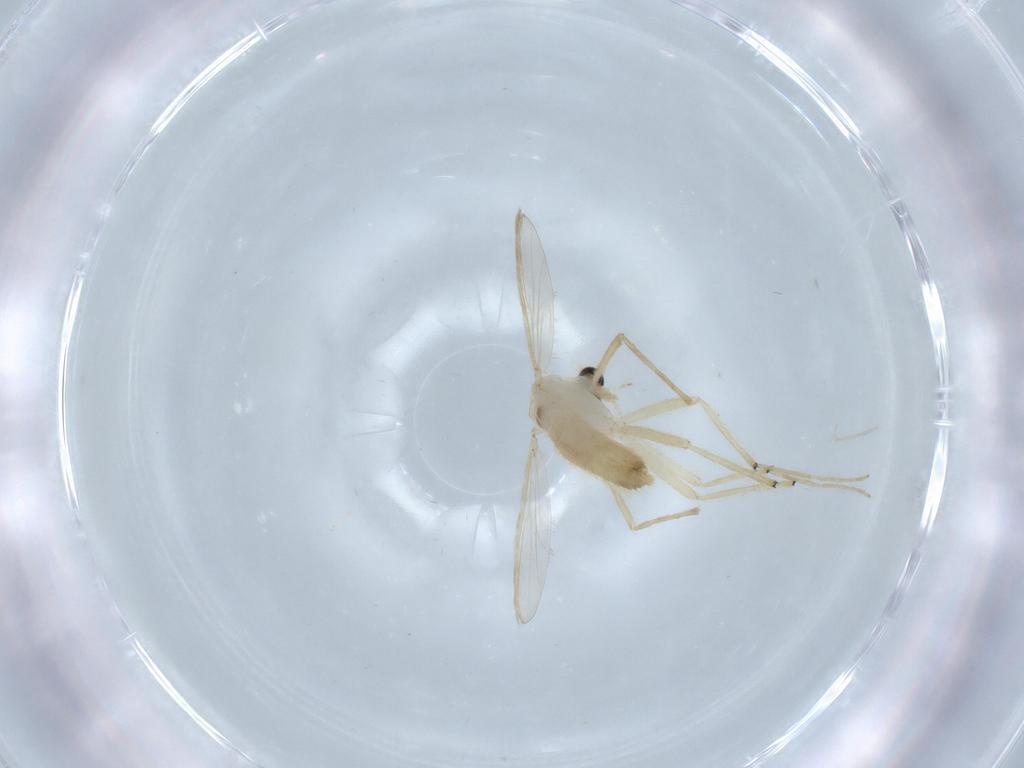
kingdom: Animalia
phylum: Arthropoda
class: Insecta
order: Diptera
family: Chironomidae
